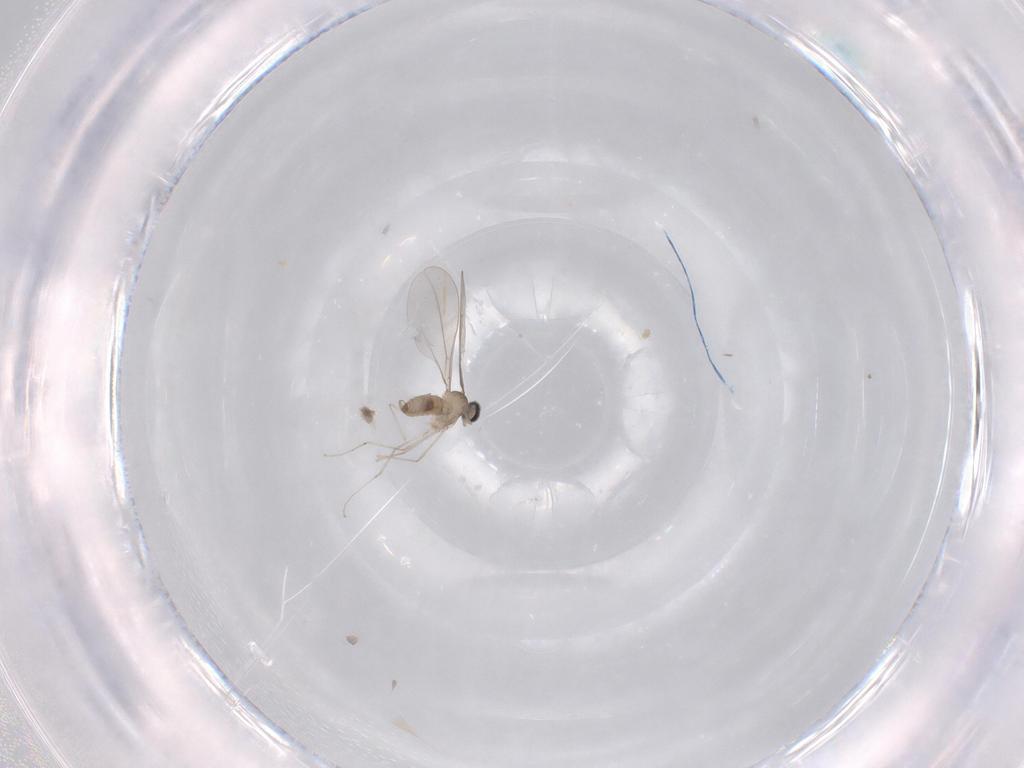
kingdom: Animalia
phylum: Arthropoda
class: Insecta
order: Diptera
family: Cecidomyiidae
